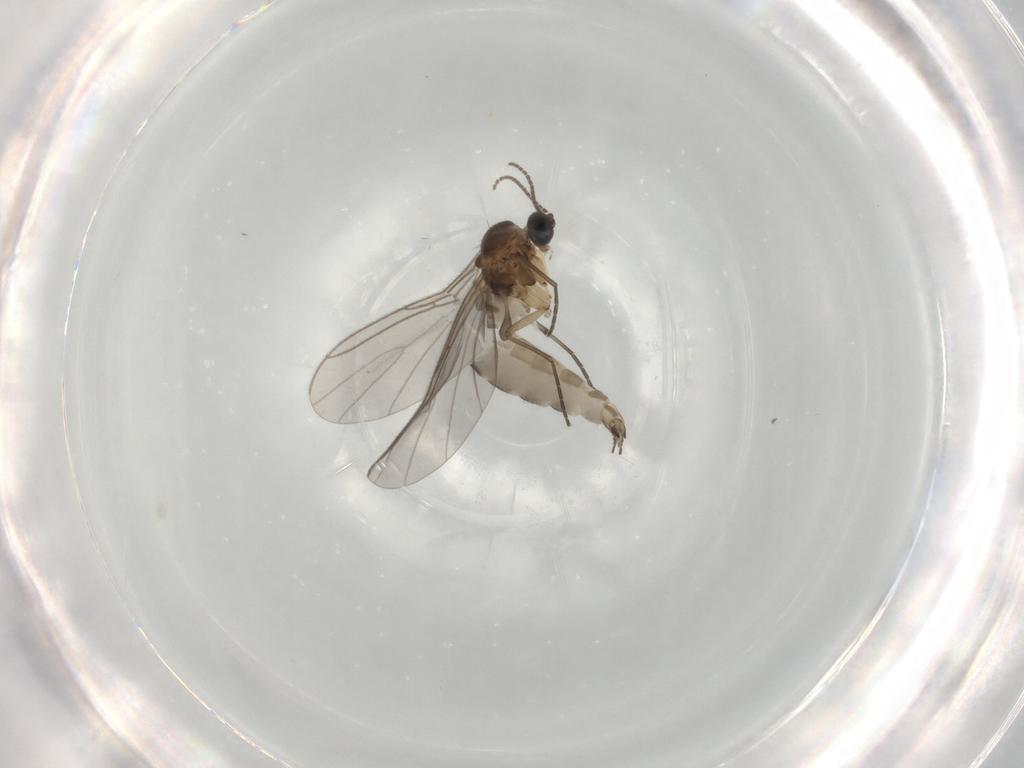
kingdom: Animalia
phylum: Arthropoda
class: Insecta
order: Diptera
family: Sciaridae
